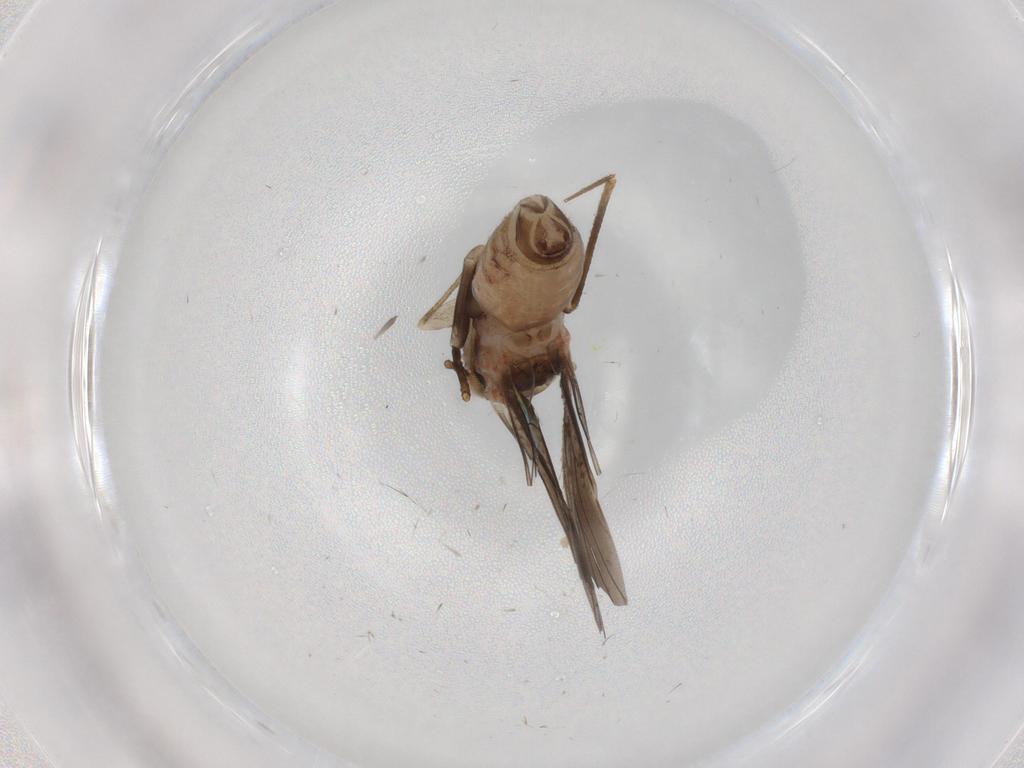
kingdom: Animalia
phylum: Arthropoda
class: Insecta
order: Psocodea
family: Lepidopsocidae
